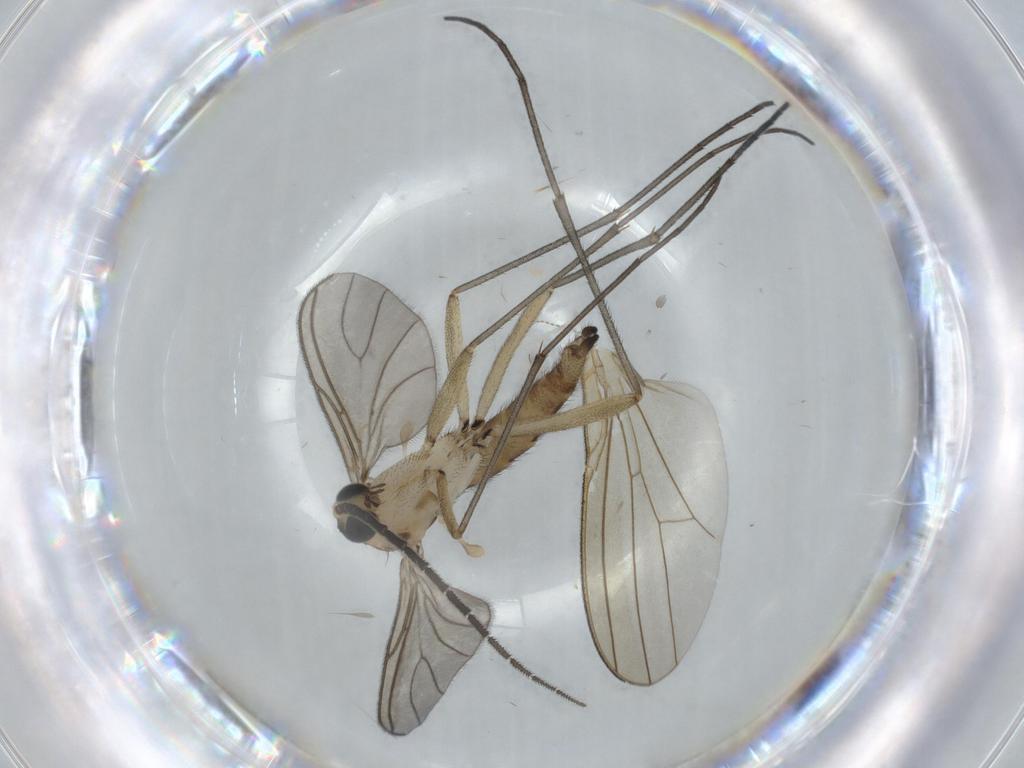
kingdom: Animalia
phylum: Arthropoda
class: Insecta
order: Diptera
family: Sciaridae
